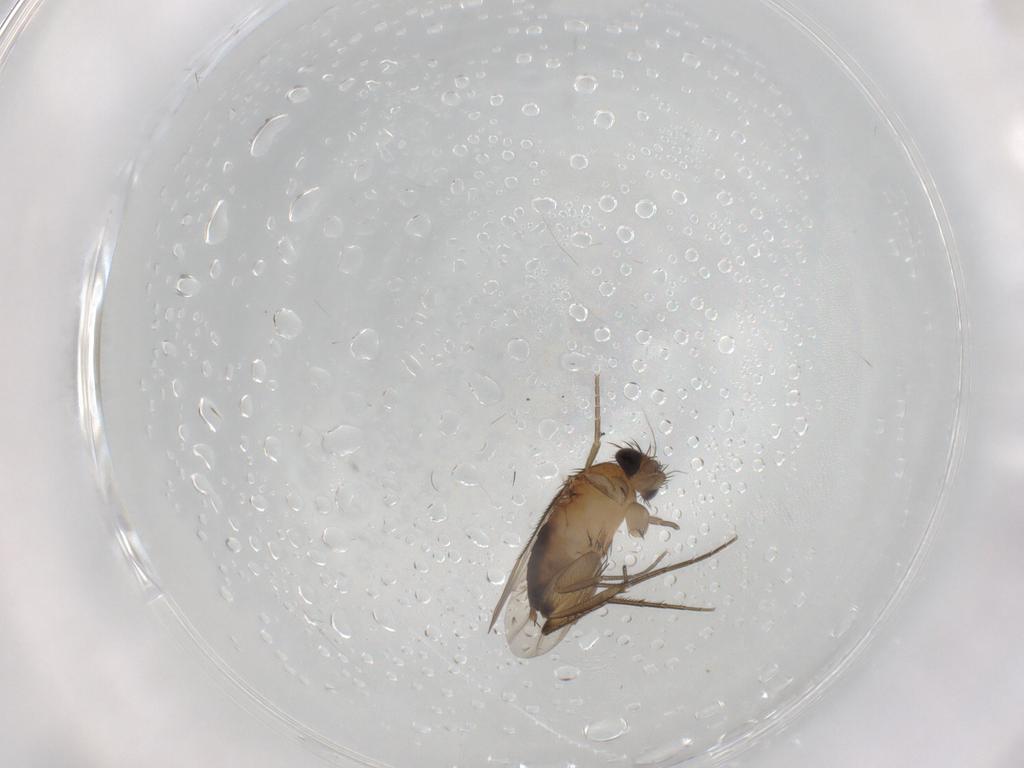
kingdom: Animalia
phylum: Arthropoda
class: Insecta
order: Diptera
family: Phoridae
